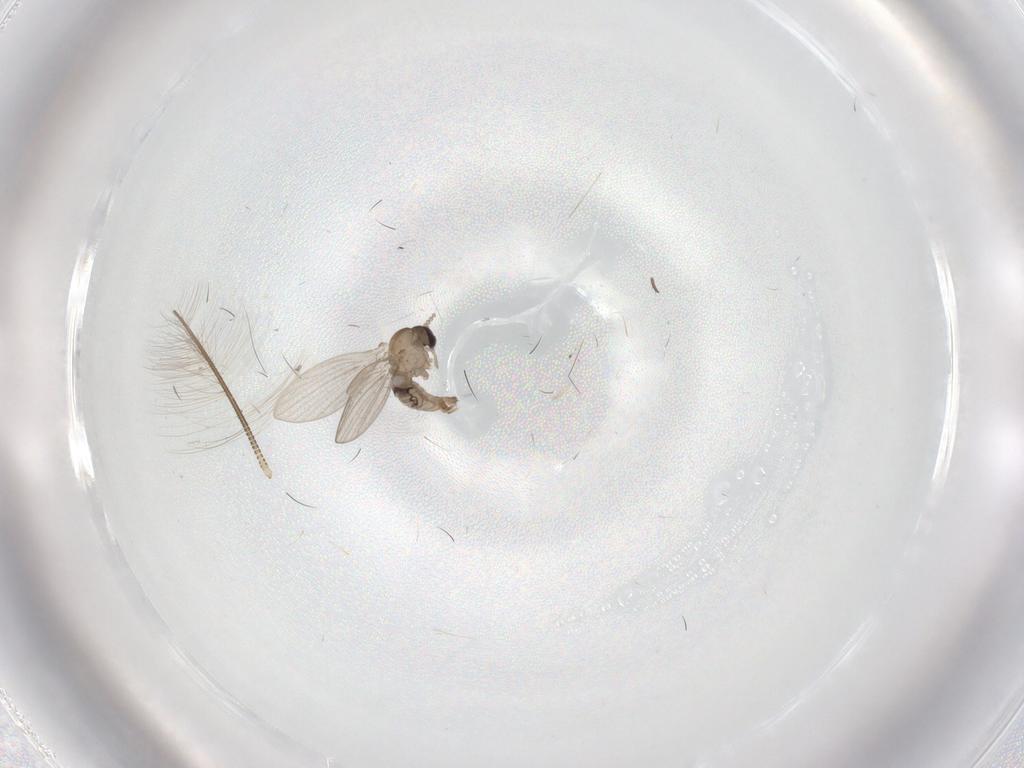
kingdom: Animalia
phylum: Arthropoda
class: Insecta
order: Diptera
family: Psychodidae
